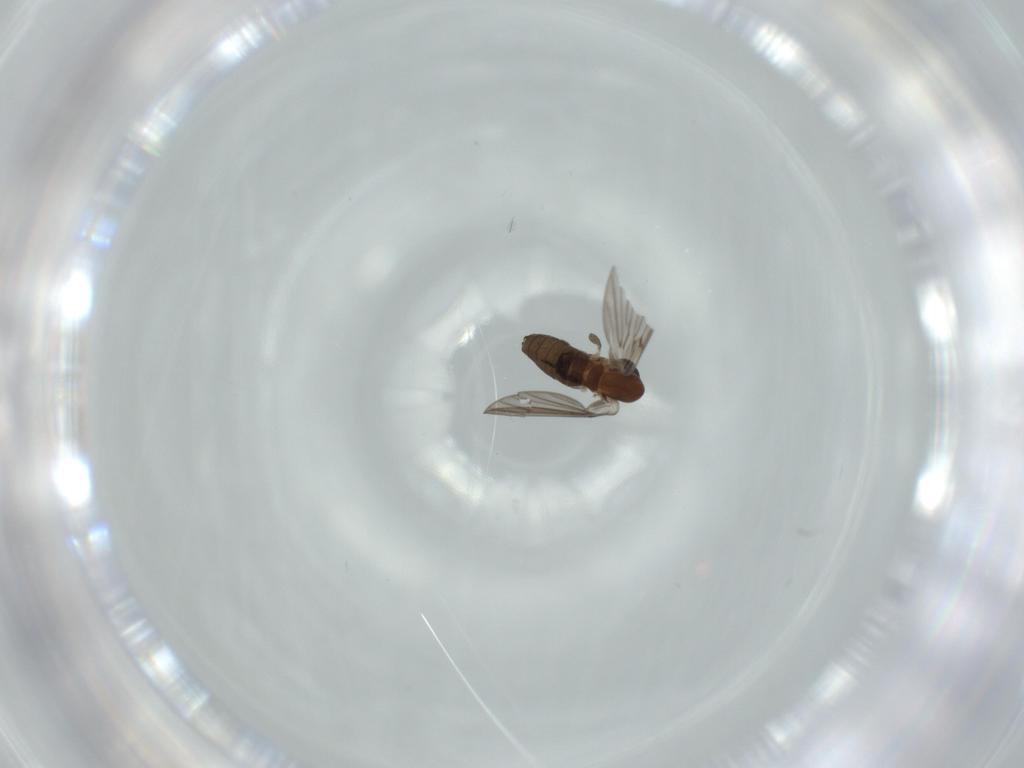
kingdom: Animalia
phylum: Arthropoda
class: Insecta
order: Diptera
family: Psychodidae
